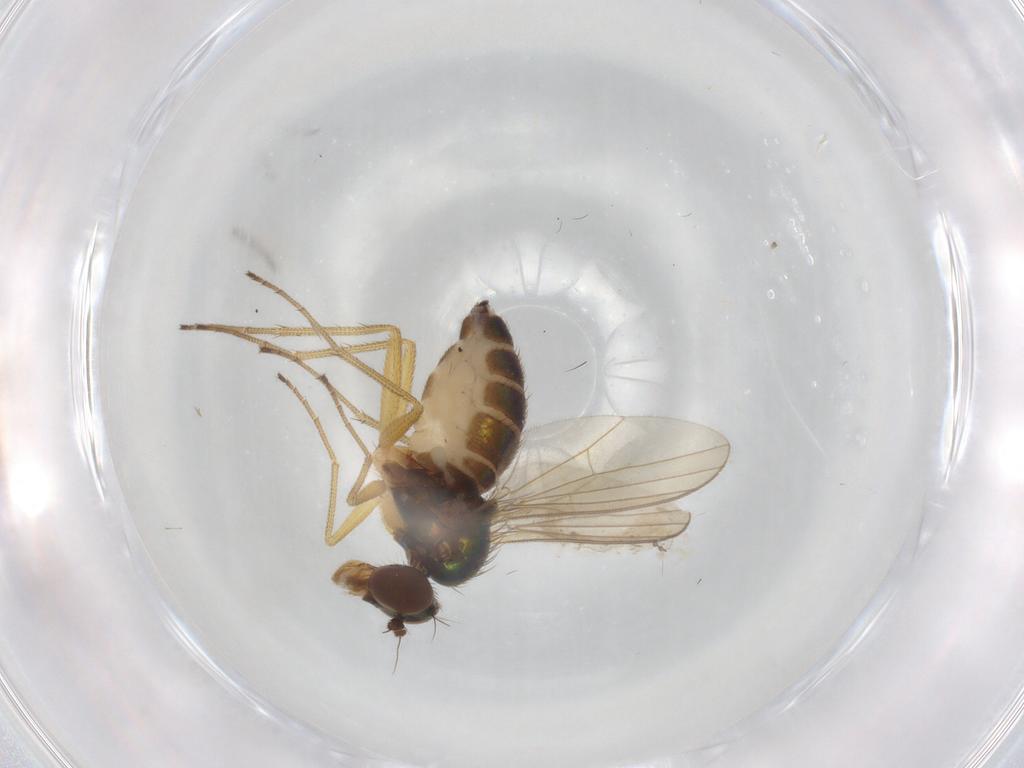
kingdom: Animalia
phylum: Arthropoda
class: Insecta
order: Diptera
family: Dolichopodidae
